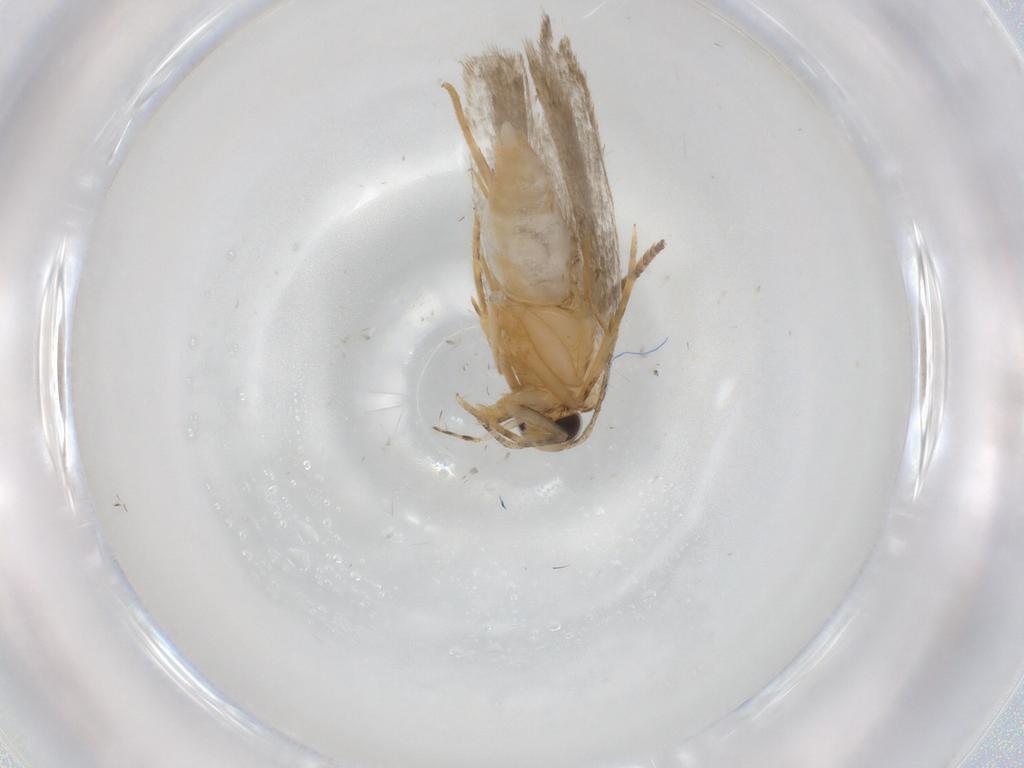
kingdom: Animalia
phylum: Arthropoda
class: Insecta
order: Lepidoptera
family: Autostichidae
